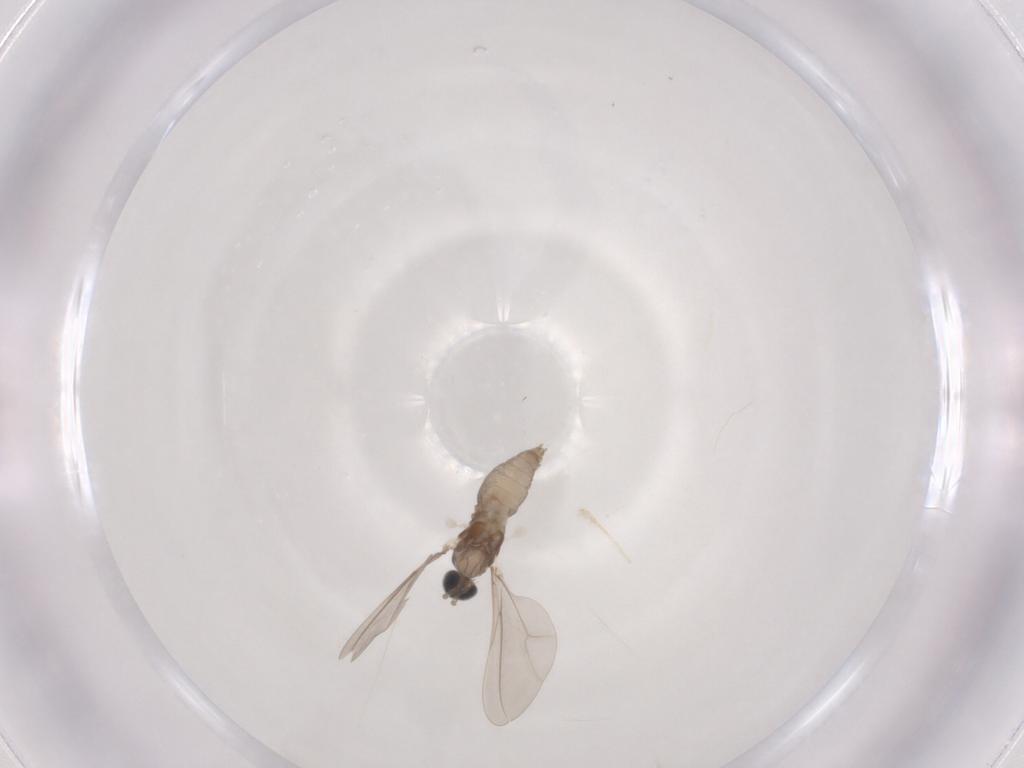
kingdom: Animalia
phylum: Arthropoda
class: Insecta
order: Diptera
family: Cecidomyiidae
